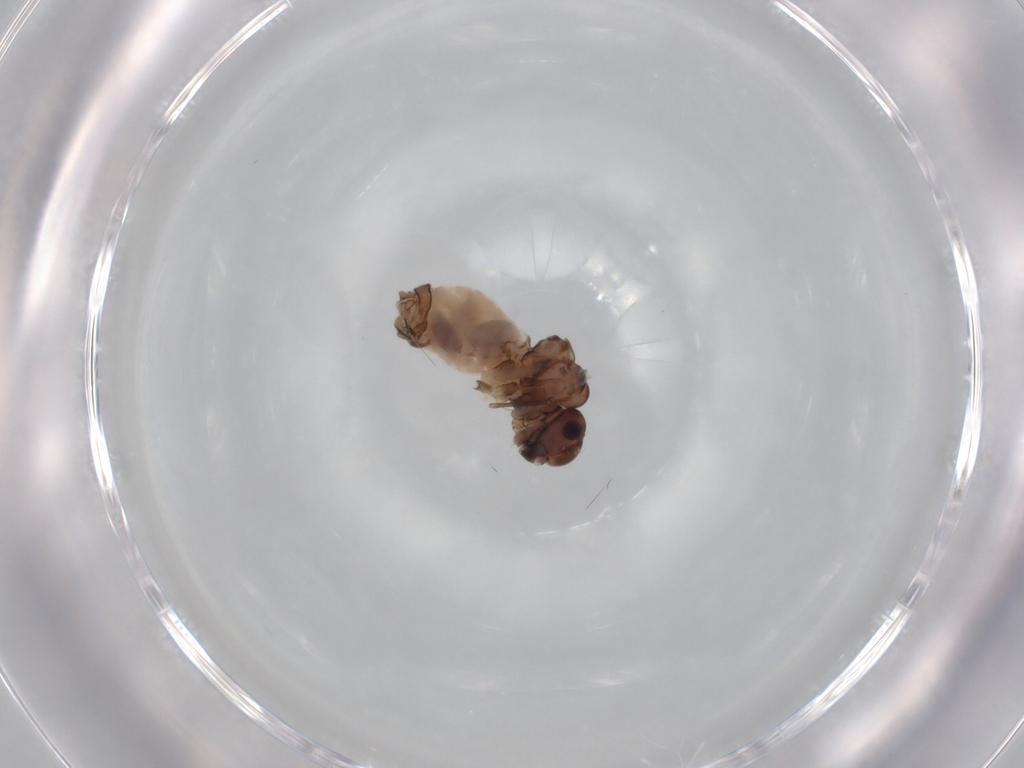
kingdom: Animalia
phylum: Arthropoda
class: Insecta
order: Psocodea
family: Peripsocidae
